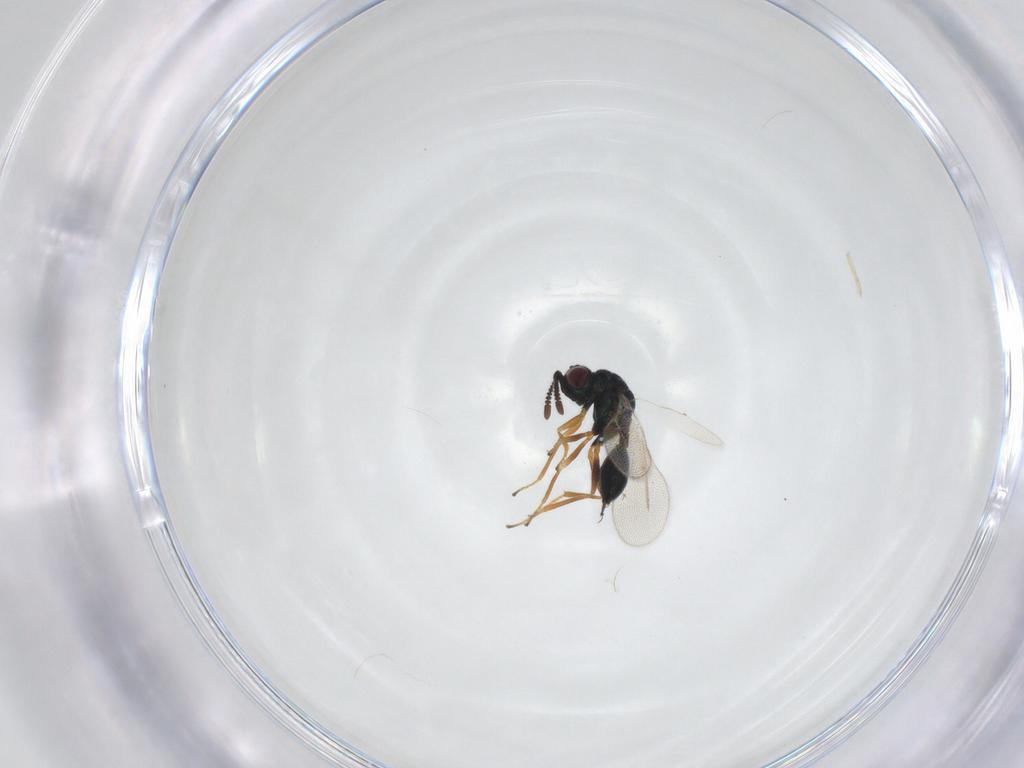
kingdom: Animalia
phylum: Arthropoda
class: Insecta
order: Hymenoptera
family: Chalcidoidea_incertae_sedis
